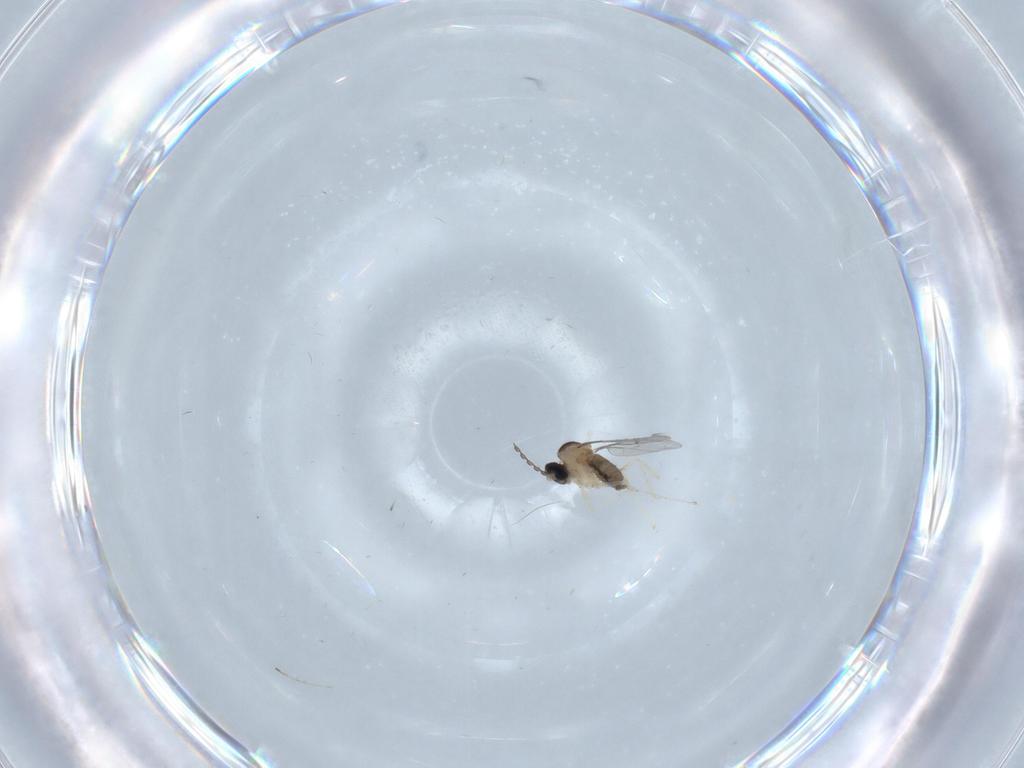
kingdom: Animalia
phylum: Arthropoda
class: Insecta
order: Diptera
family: Cecidomyiidae
